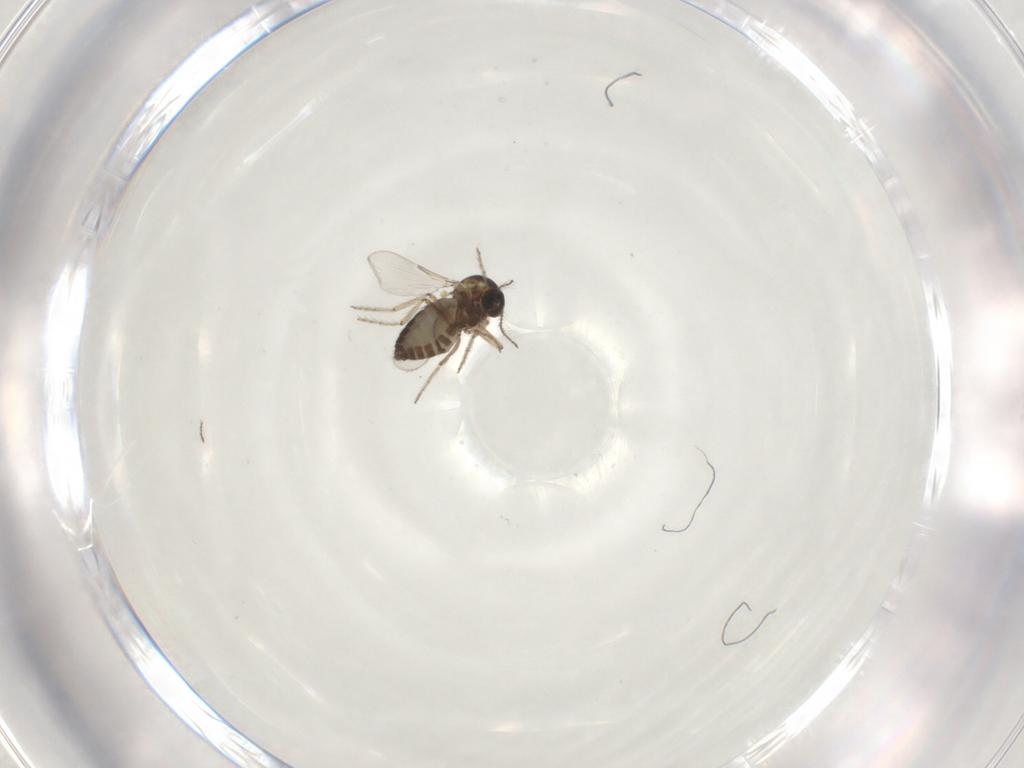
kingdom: Animalia
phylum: Arthropoda
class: Insecta
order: Diptera
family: Ceratopogonidae
